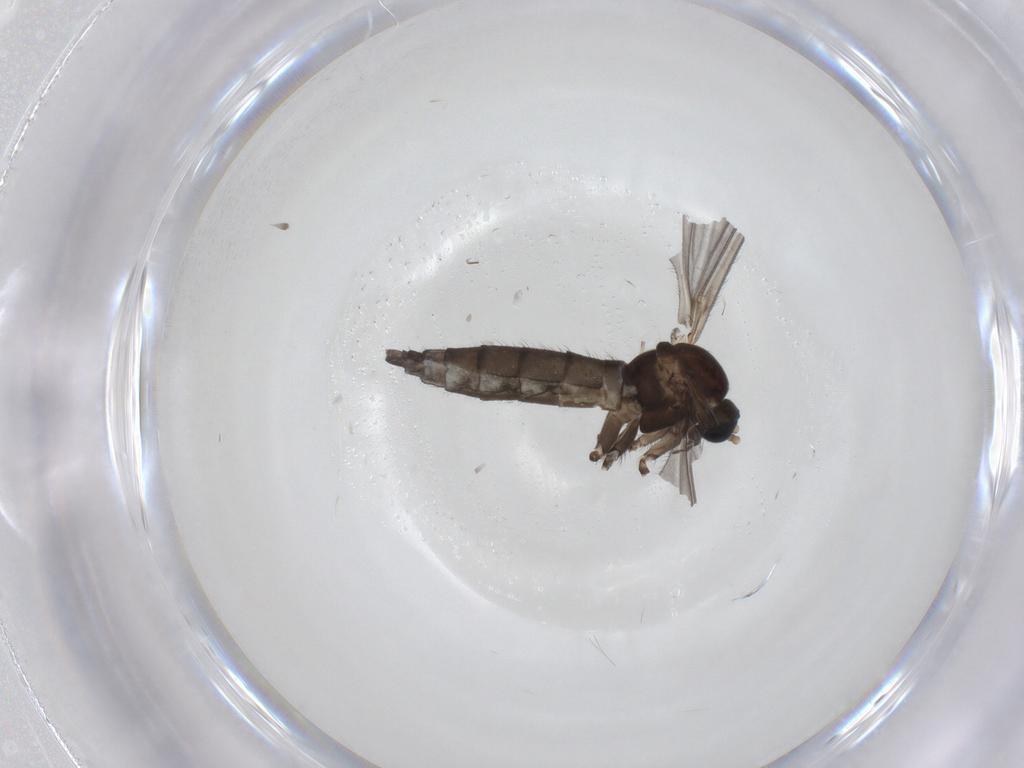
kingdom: Animalia
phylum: Arthropoda
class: Insecta
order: Diptera
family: Sciaridae
